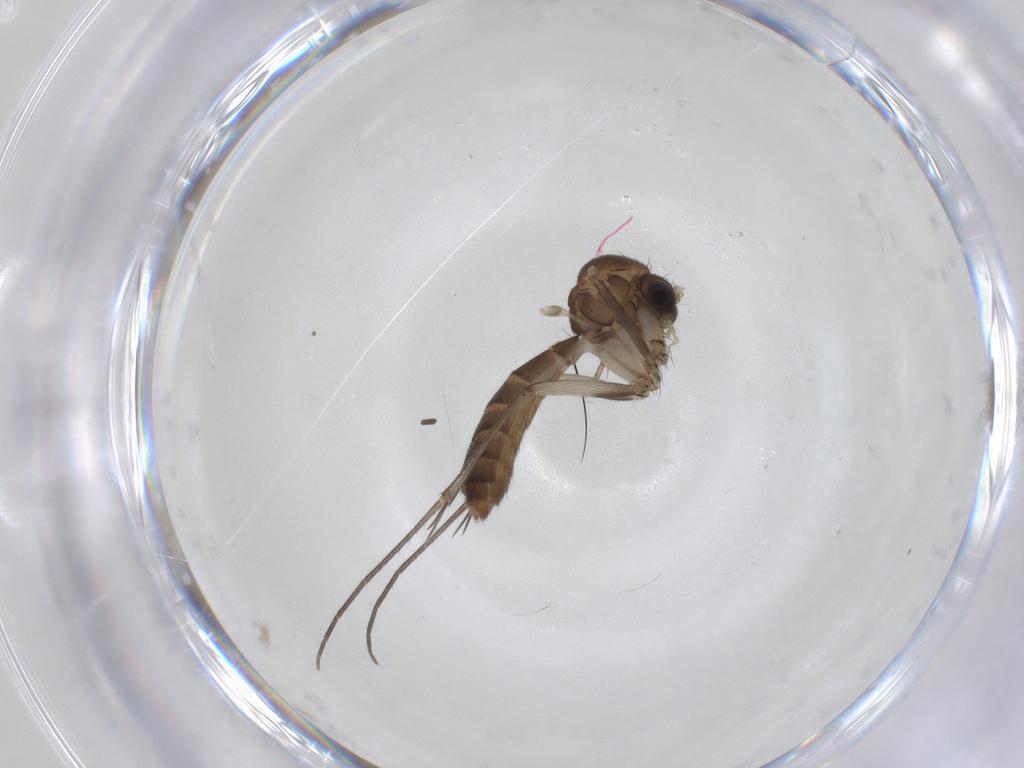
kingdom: Animalia
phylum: Arthropoda
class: Insecta
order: Diptera
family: Mycetophilidae
